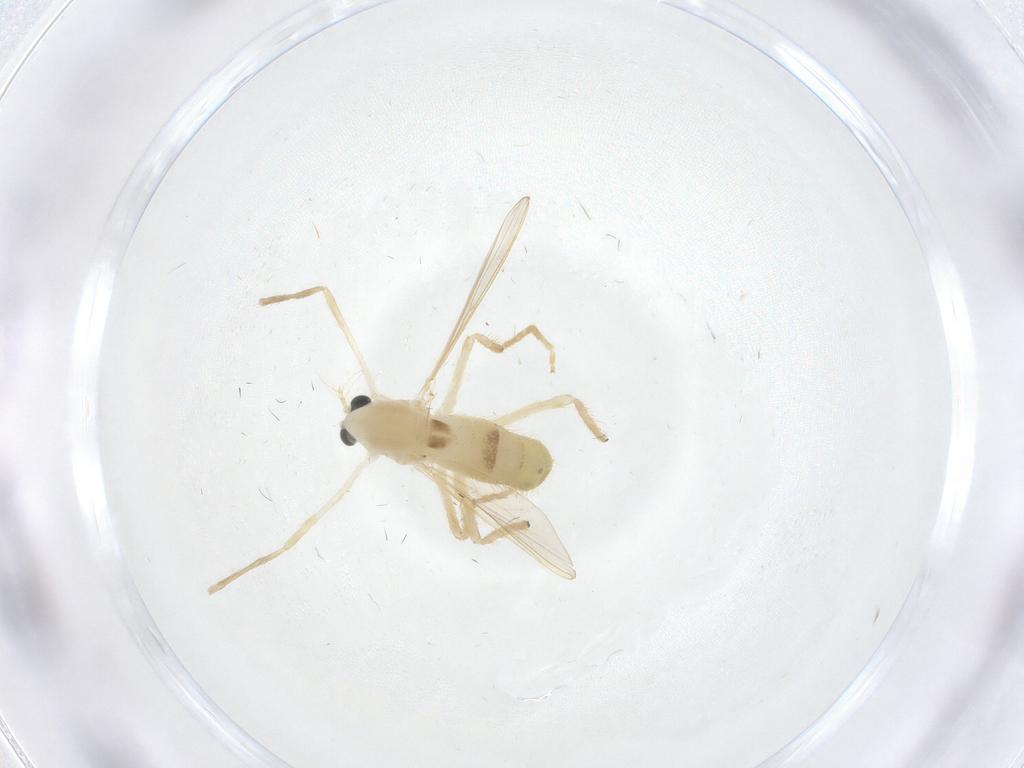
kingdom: Animalia
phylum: Arthropoda
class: Insecta
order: Diptera
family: Chironomidae
